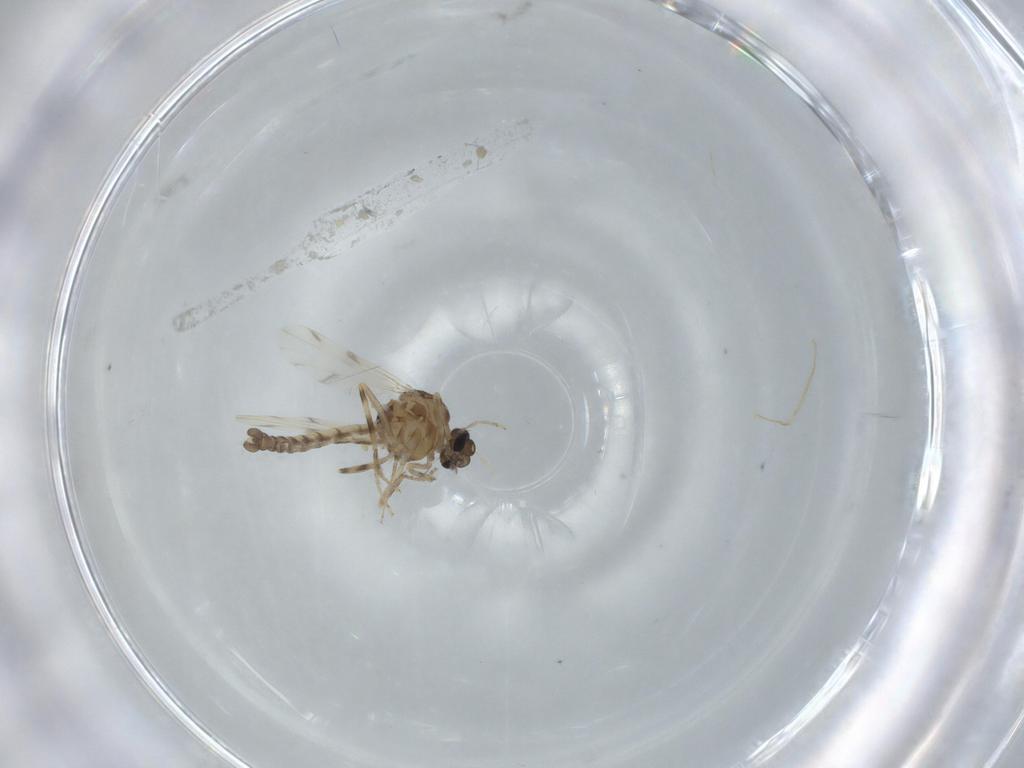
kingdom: Animalia
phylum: Arthropoda
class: Insecta
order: Diptera
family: Ceratopogonidae
